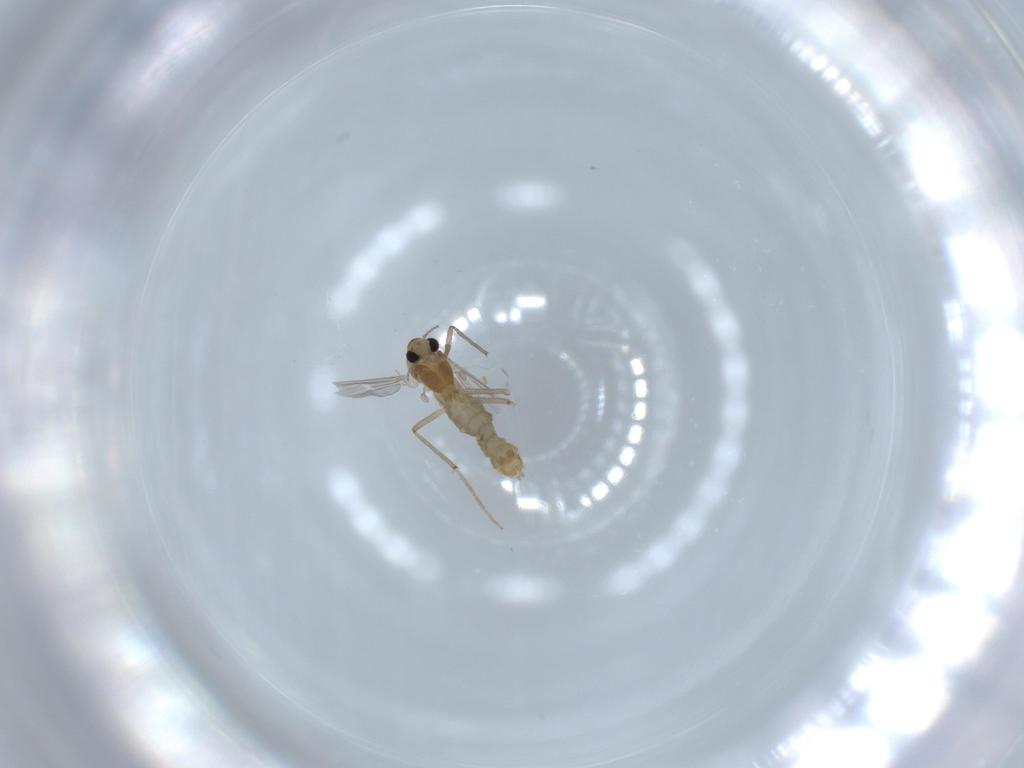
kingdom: Animalia
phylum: Arthropoda
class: Insecta
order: Diptera
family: Chironomidae
